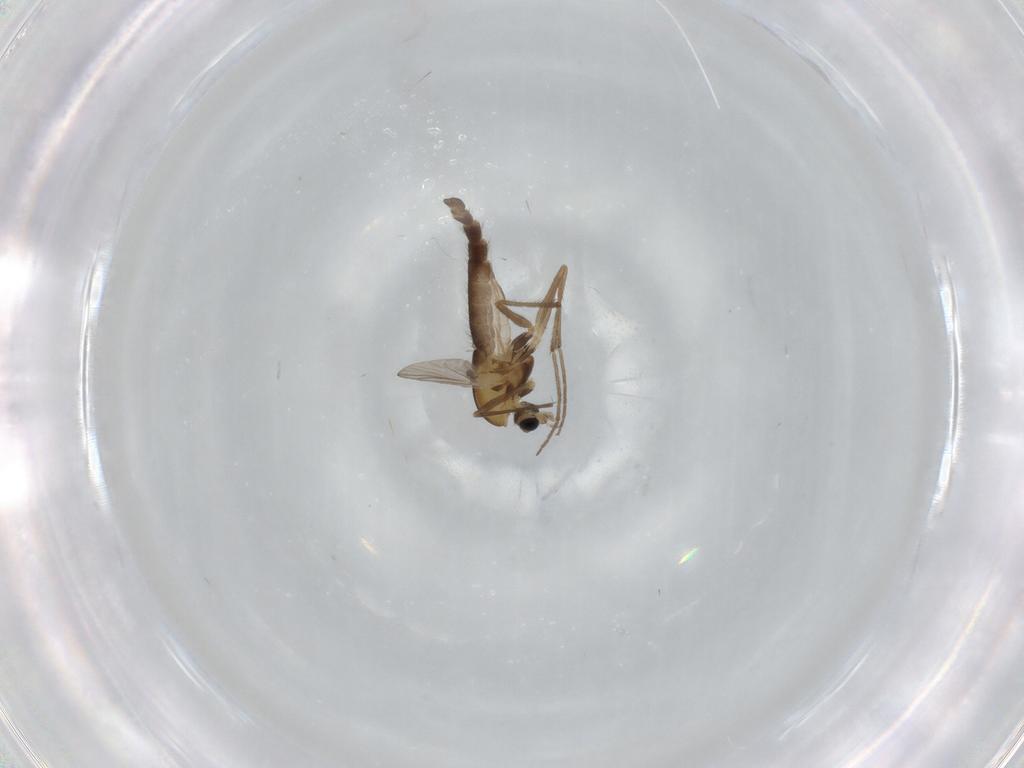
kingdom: Animalia
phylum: Arthropoda
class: Insecta
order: Diptera
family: Chironomidae
